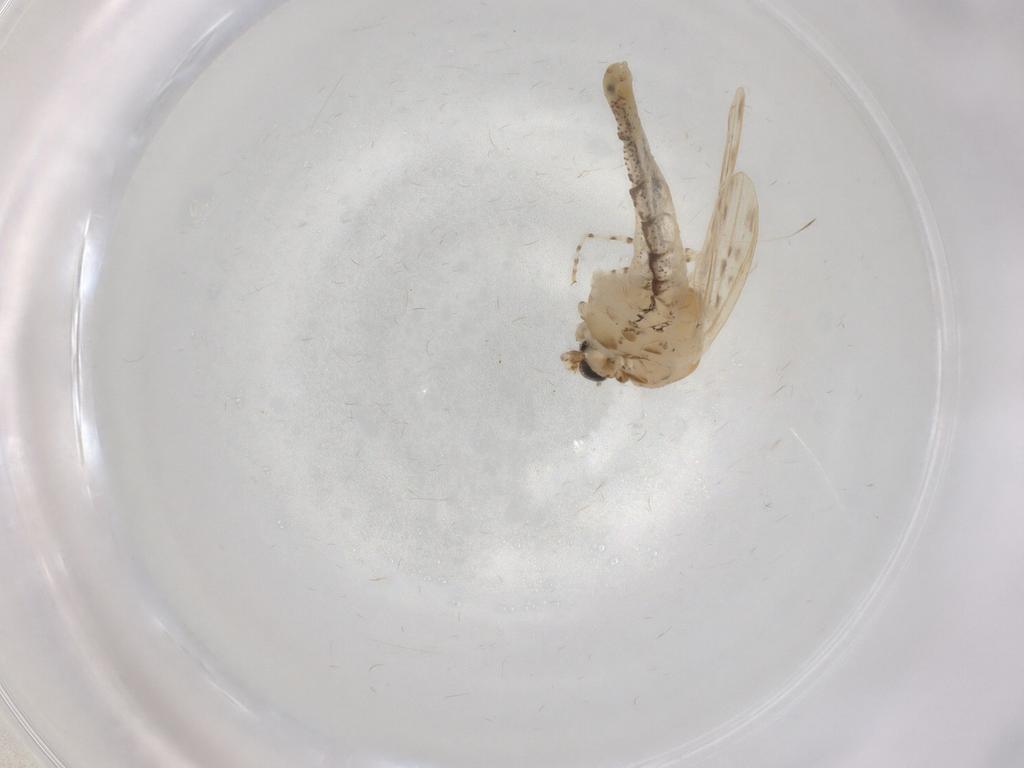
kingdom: Animalia
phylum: Arthropoda
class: Insecta
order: Diptera
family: Chaoboridae
